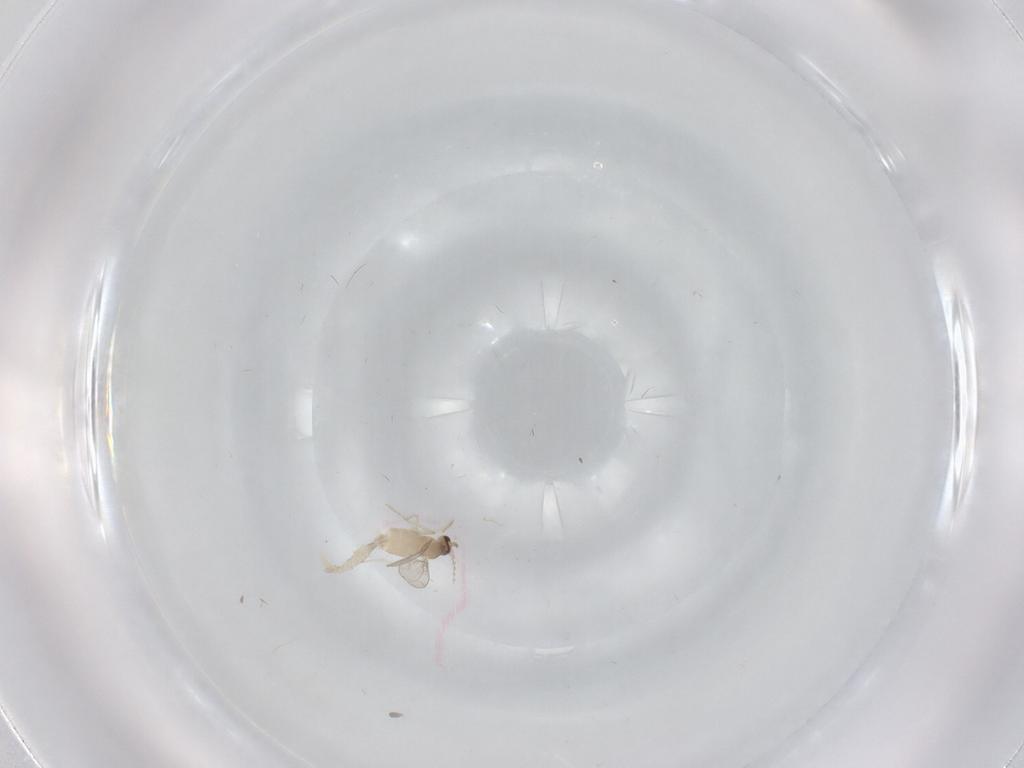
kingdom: Animalia
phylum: Arthropoda
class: Insecta
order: Diptera
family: Cecidomyiidae
